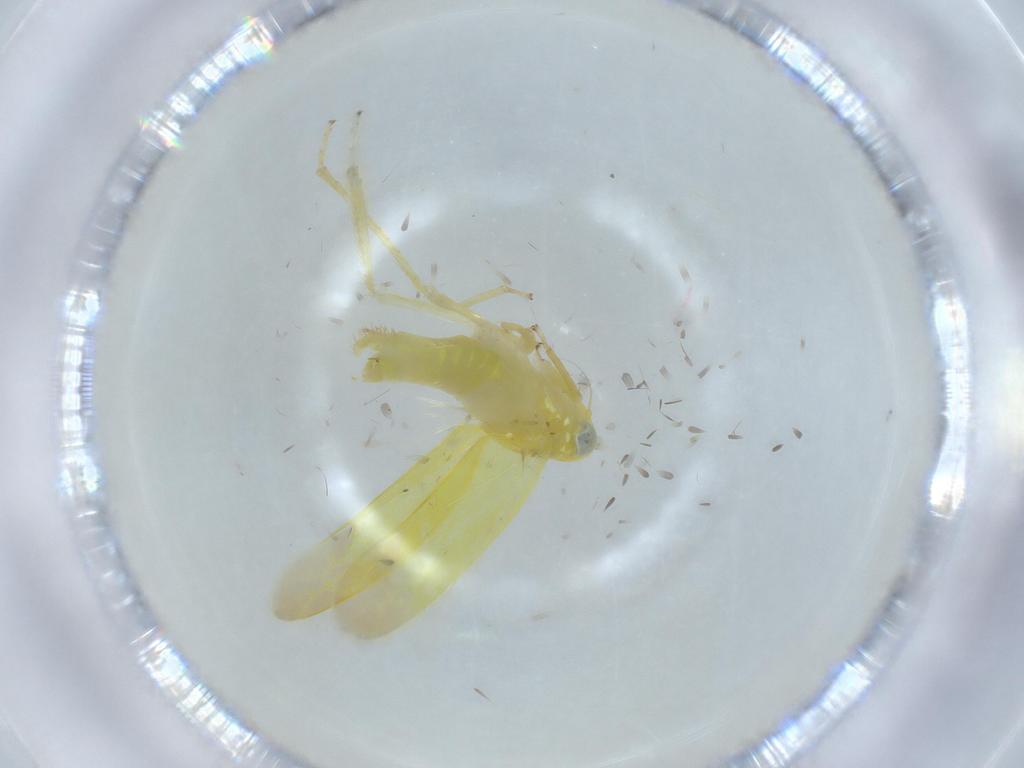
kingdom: Animalia
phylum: Arthropoda
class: Insecta
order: Hemiptera
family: Cicadellidae
